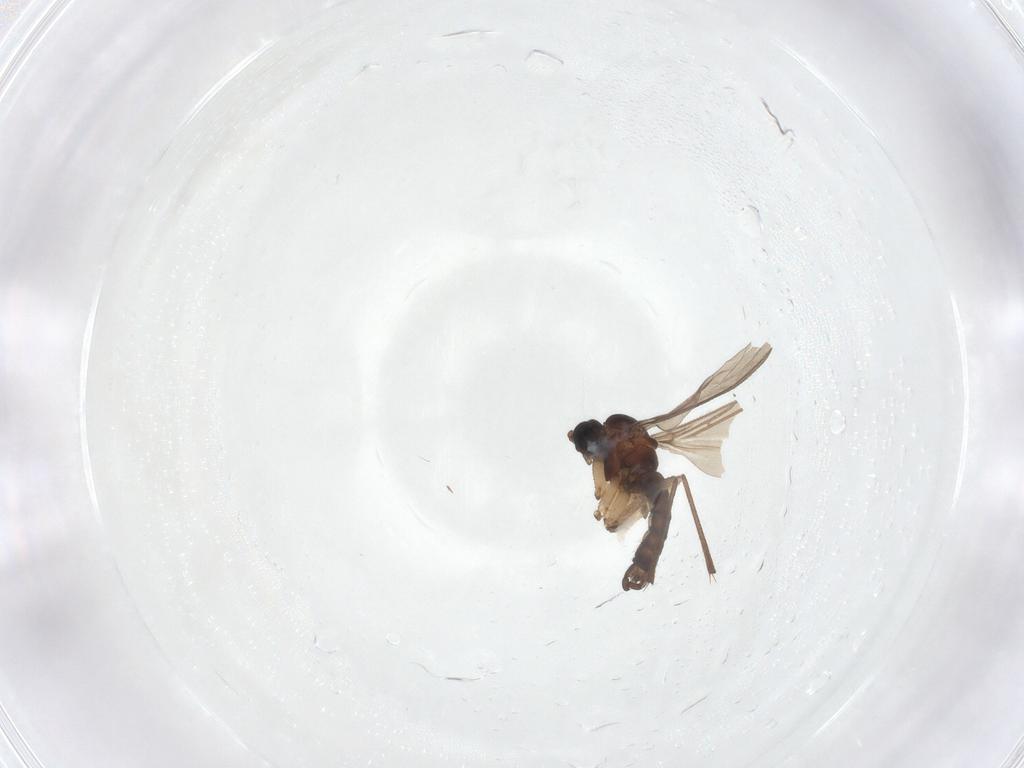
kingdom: Animalia
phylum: Arthropoda
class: Insecta
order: Diptera
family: Sciaridae
